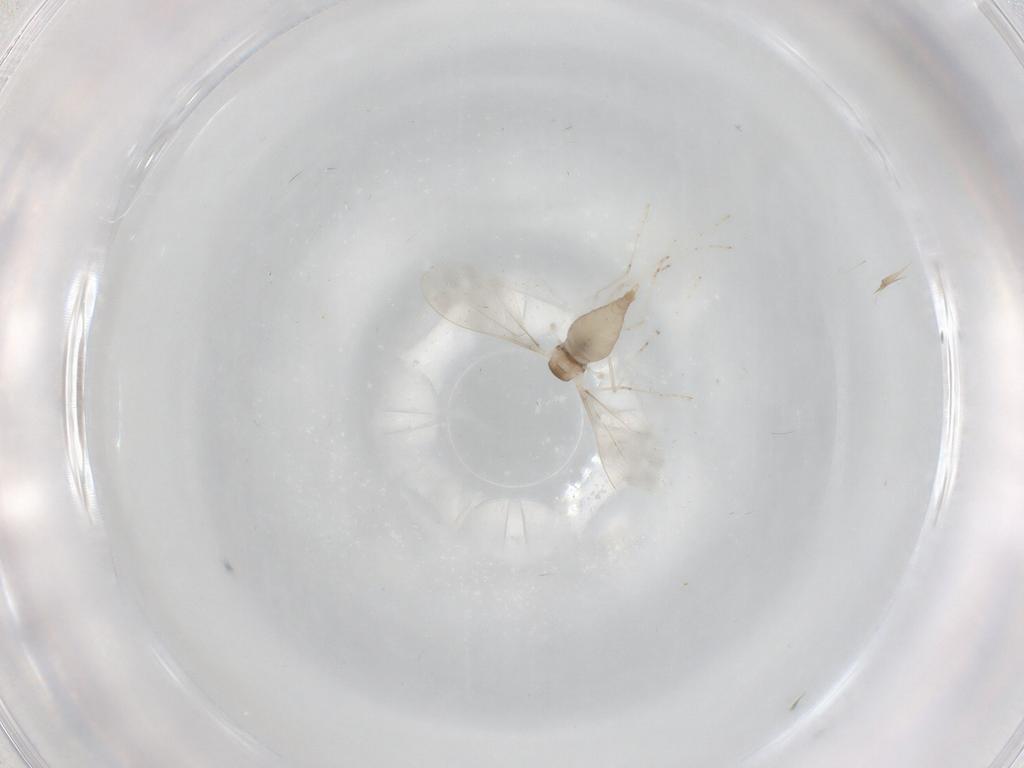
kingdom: Animalia
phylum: Arthropoda
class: Insecta
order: Diptera
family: Cecidomyiidae
